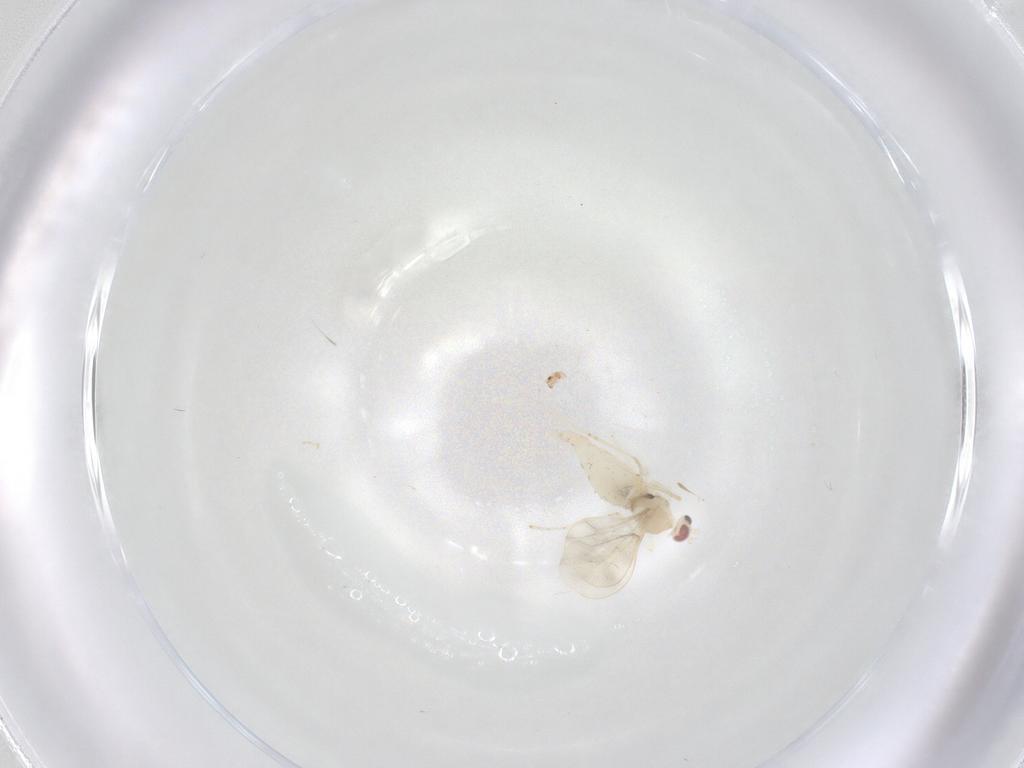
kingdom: Animalia
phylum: Arthropoda
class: Insecta
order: Diptera
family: Cecidomyiidae
